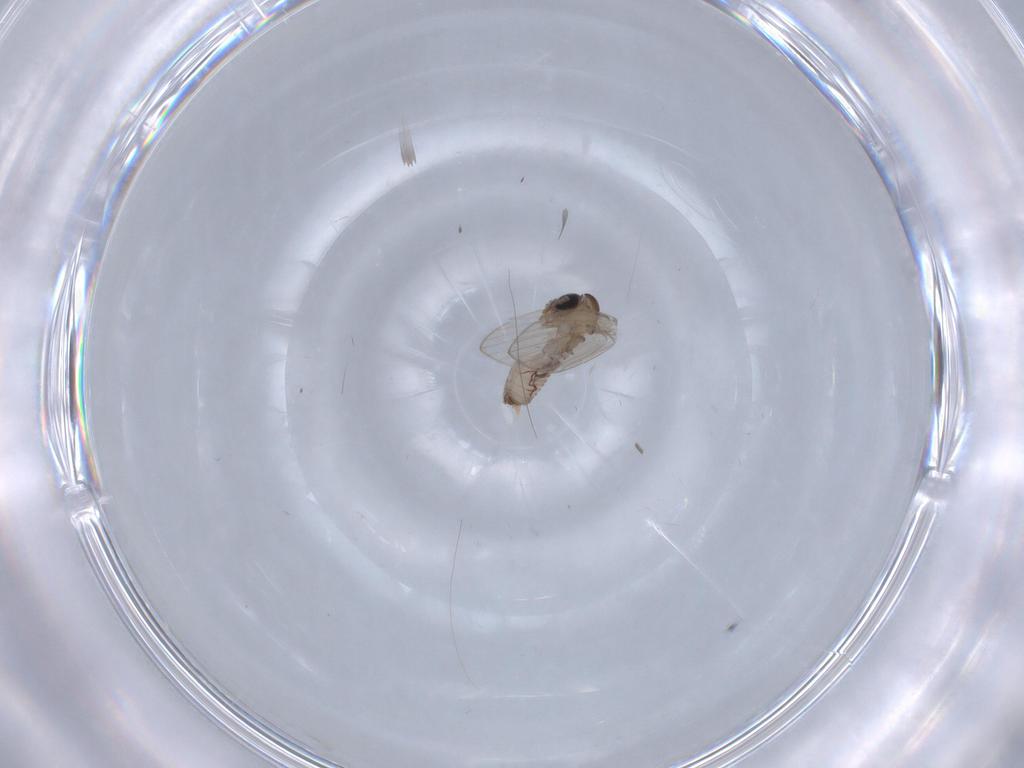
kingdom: Animalia
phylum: Arthropoda
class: Insecta
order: Diptera
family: Psychodidae
